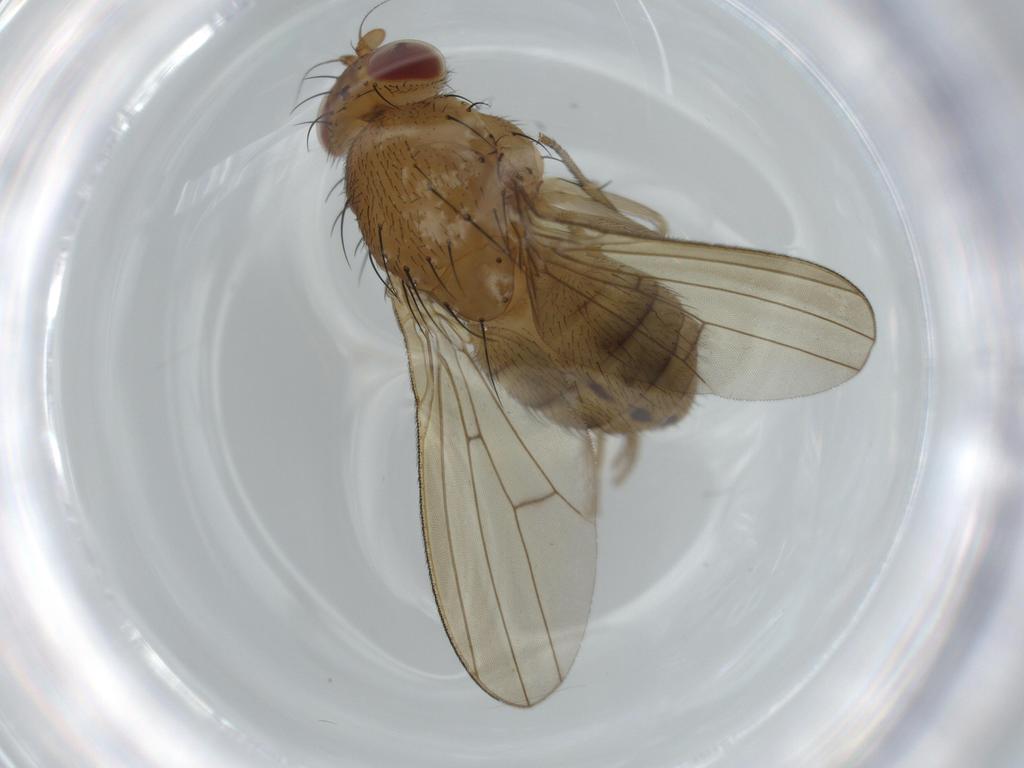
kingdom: Animalia
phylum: Arthropoda
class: Insecta
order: Diptera
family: Psychodidae
